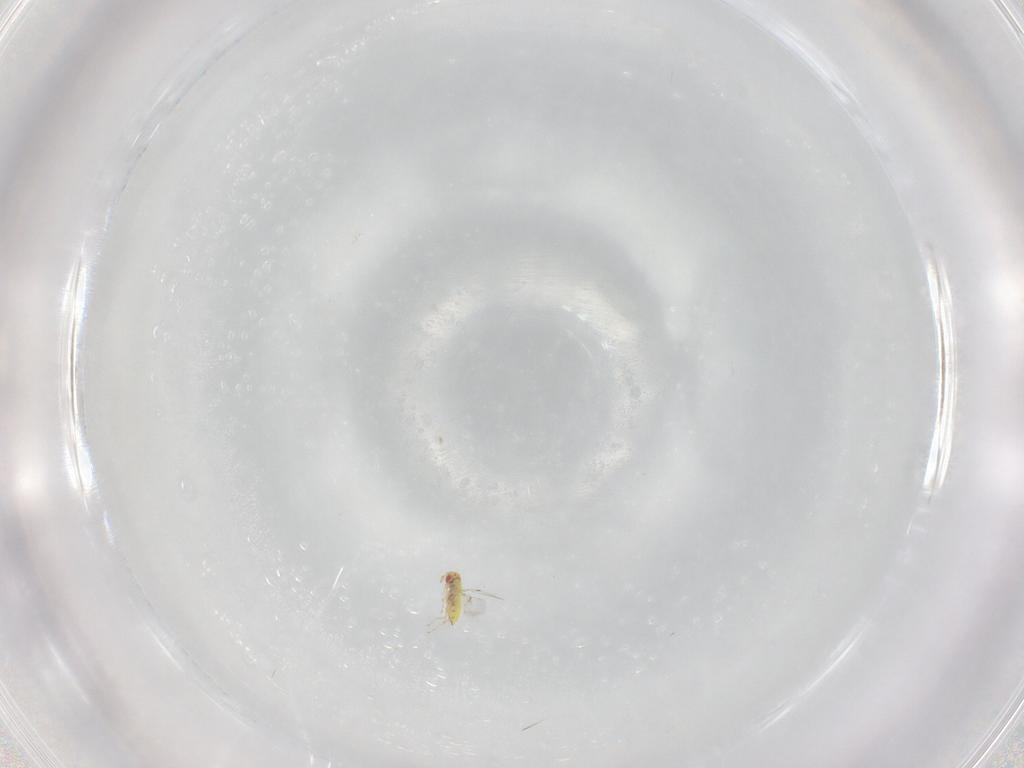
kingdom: Animalia
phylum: Arthropoda
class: Insecta
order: Hymenoptera
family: Trichogrammatidae
